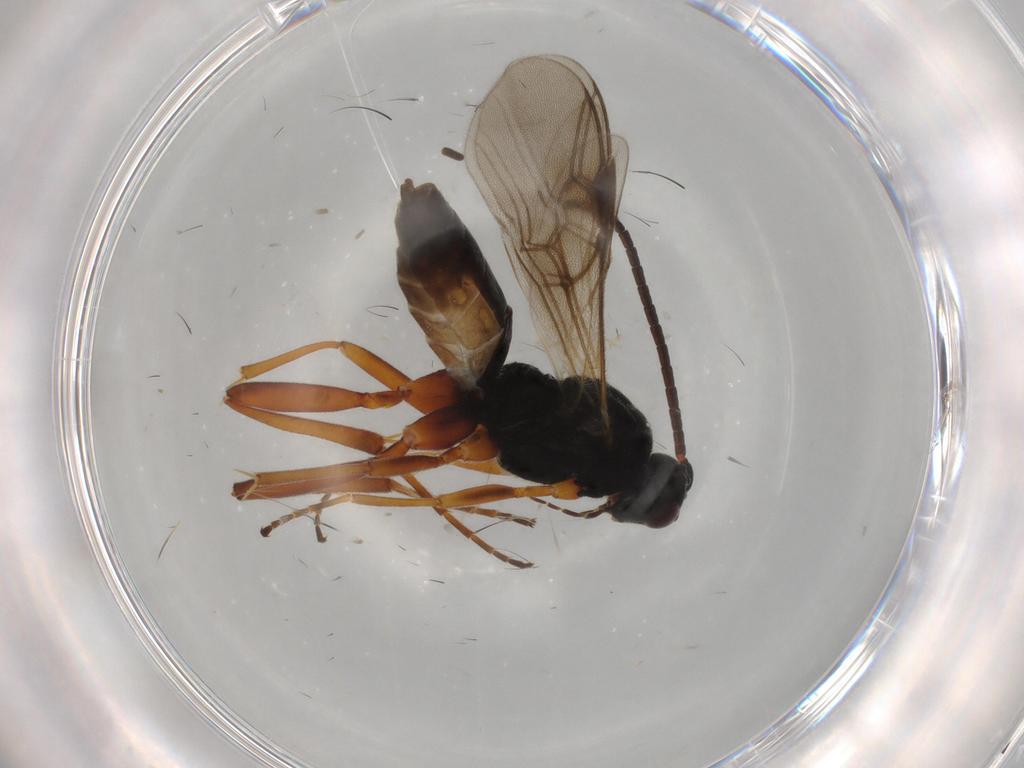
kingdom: Animalia
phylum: Arthropoda
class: Insecta
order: Hymenoptera
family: Braconidae
